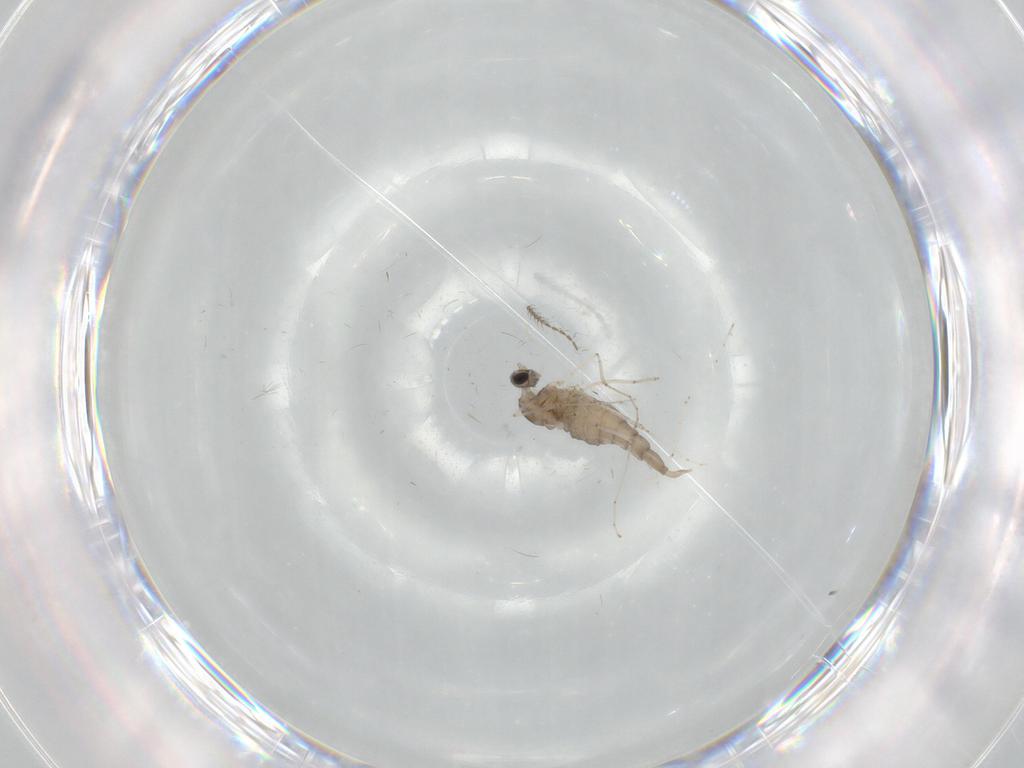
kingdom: Animalia
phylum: Arthropoda
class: Insecta
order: Diptera
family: Cecidomyiidae
